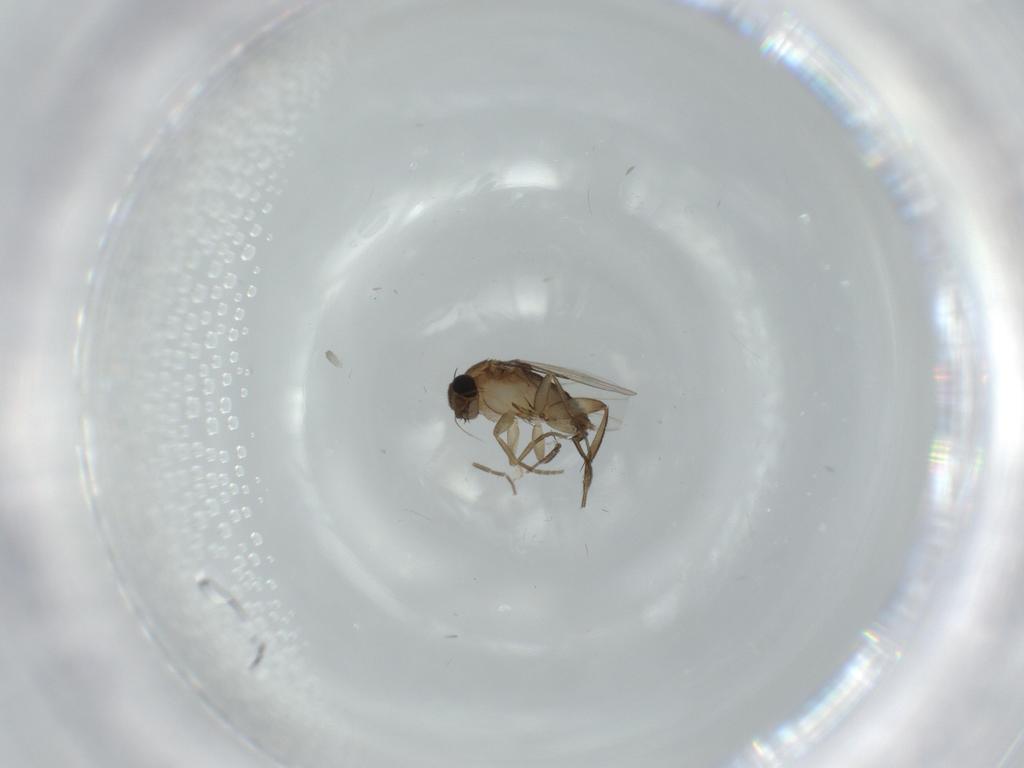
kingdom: Animalia
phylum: Arthropoda
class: Insecta
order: Diptera
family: Phoridae
